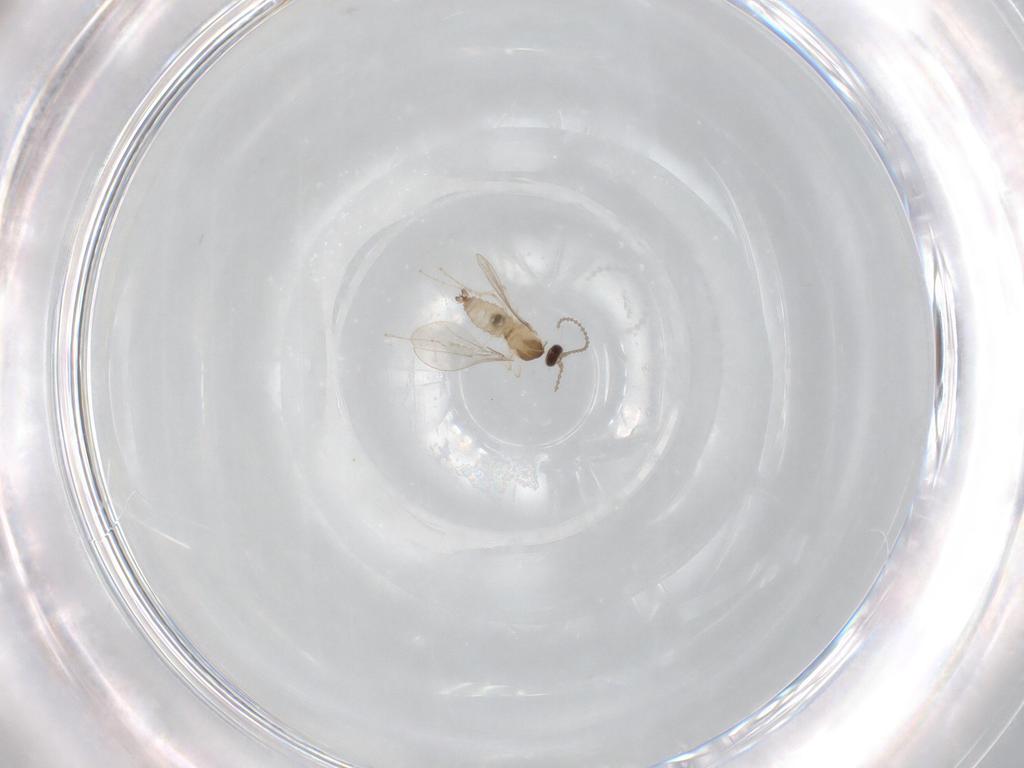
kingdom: Animalia
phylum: Arthropoda
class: Insecta
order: Diptera
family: Cecidomyiidae
